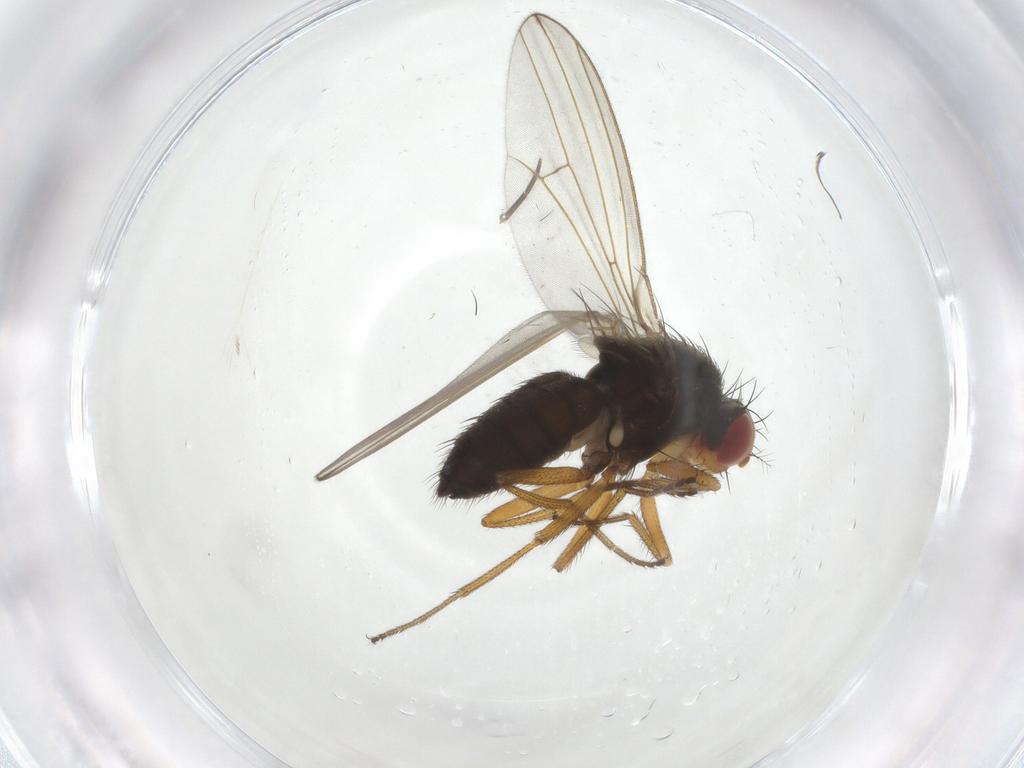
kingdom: Animalia
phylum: Arthropoda
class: Insecta
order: Diptera
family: Drosophilidae
